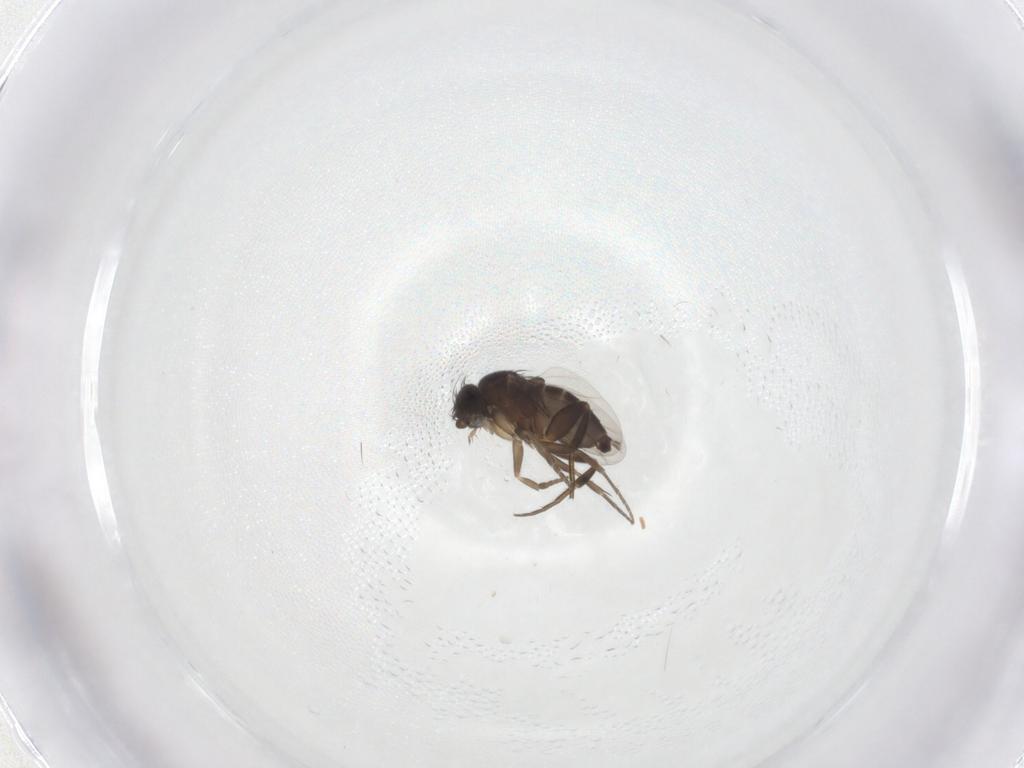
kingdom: Animalia
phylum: Arthropoda
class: Insecta
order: Diptera
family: Phoridae
